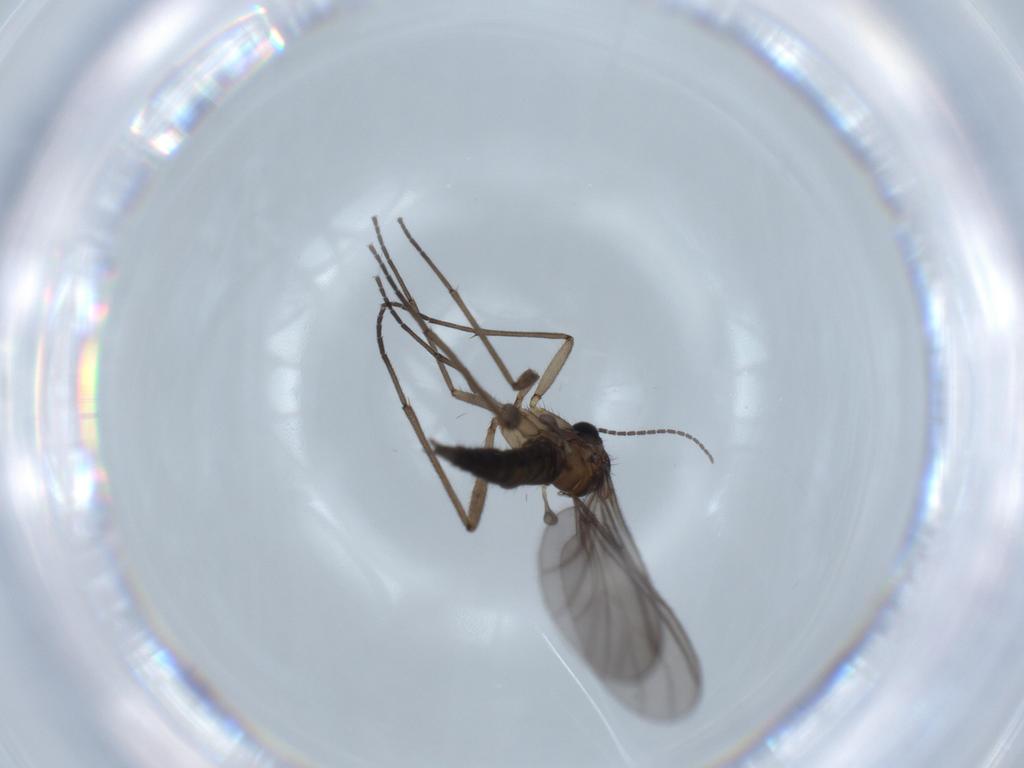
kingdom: Animalia
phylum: Arthropoda
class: Insecta
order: Diptera
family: Sciaridae
